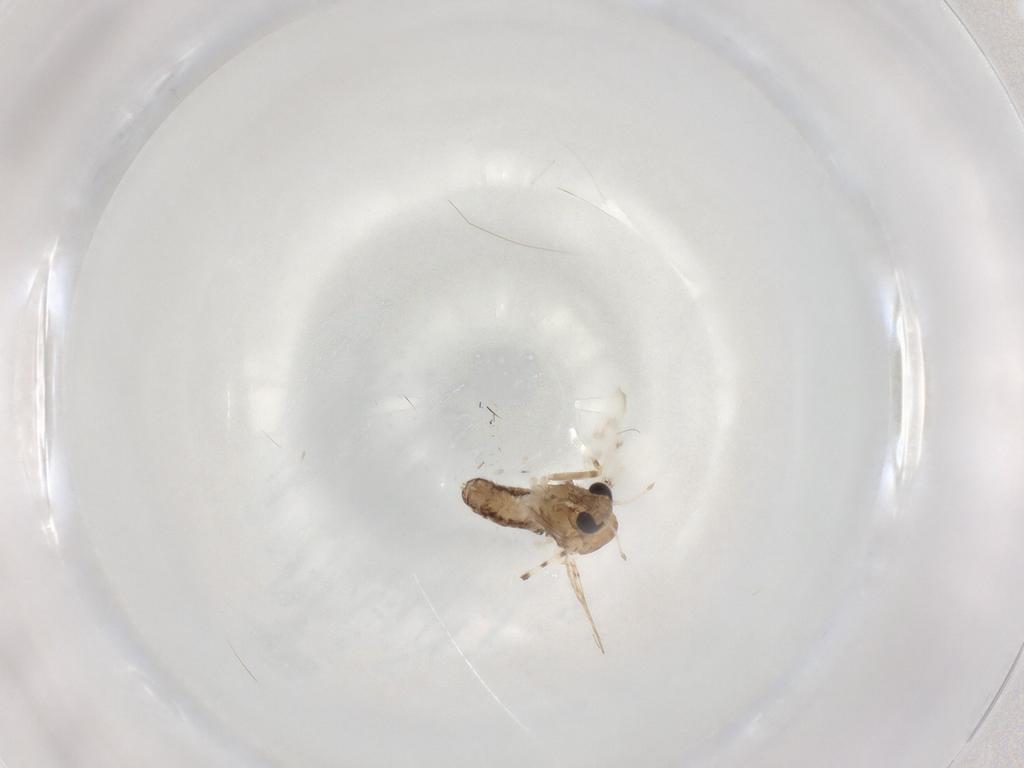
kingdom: Animalia
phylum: Arthropoda
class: Insecta
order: Diptera
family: Chironomidae
